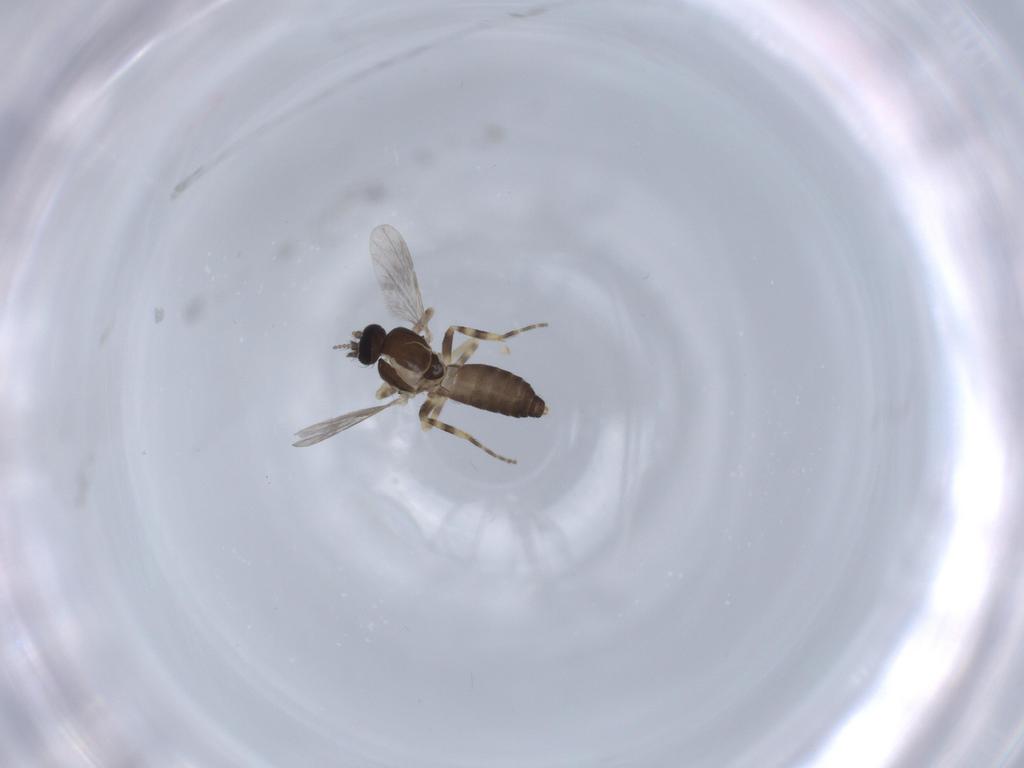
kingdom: Animalia
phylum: Arthropoda
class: Insecta
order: Diptera
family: Ceratopogonidae
